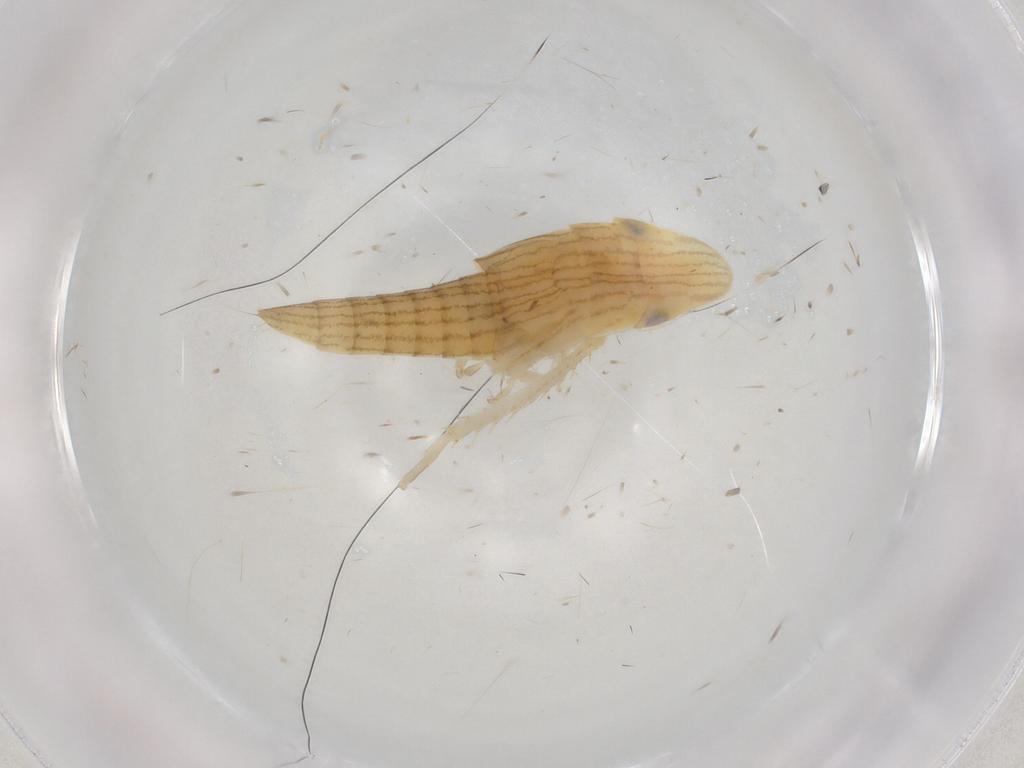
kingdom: Animalia
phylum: Arthropoda
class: Insecta
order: Hemiptera
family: Cicadellidae
